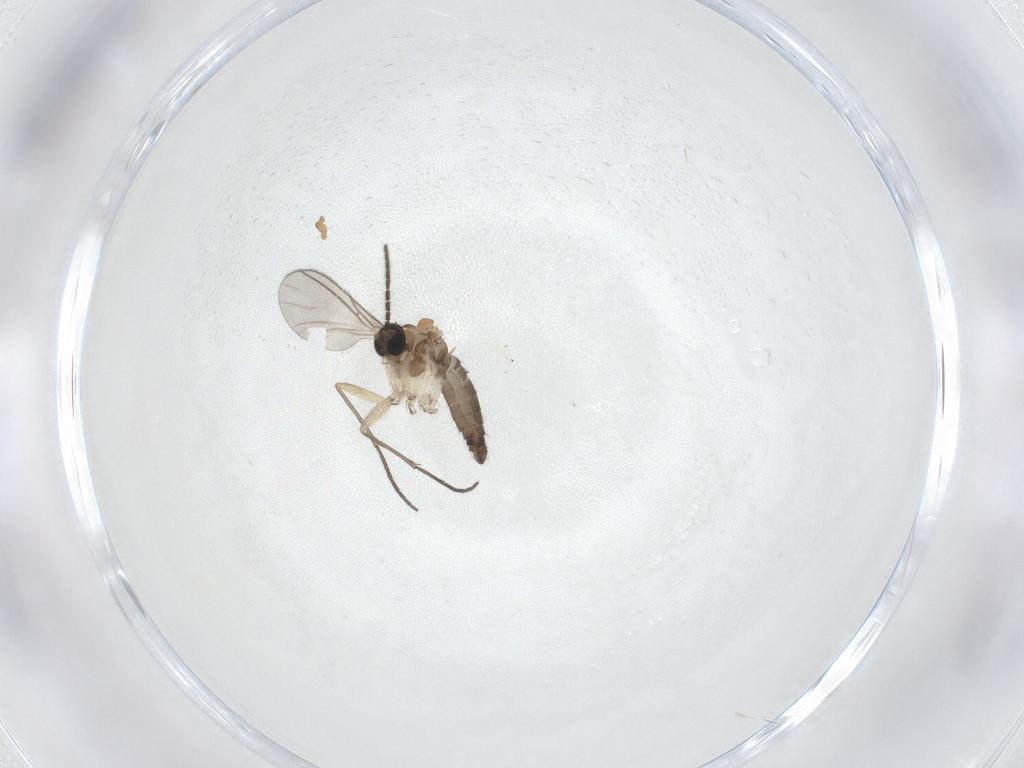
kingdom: Animalia
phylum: Arthropoda
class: Insecta
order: Diptera
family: Sciaridae
